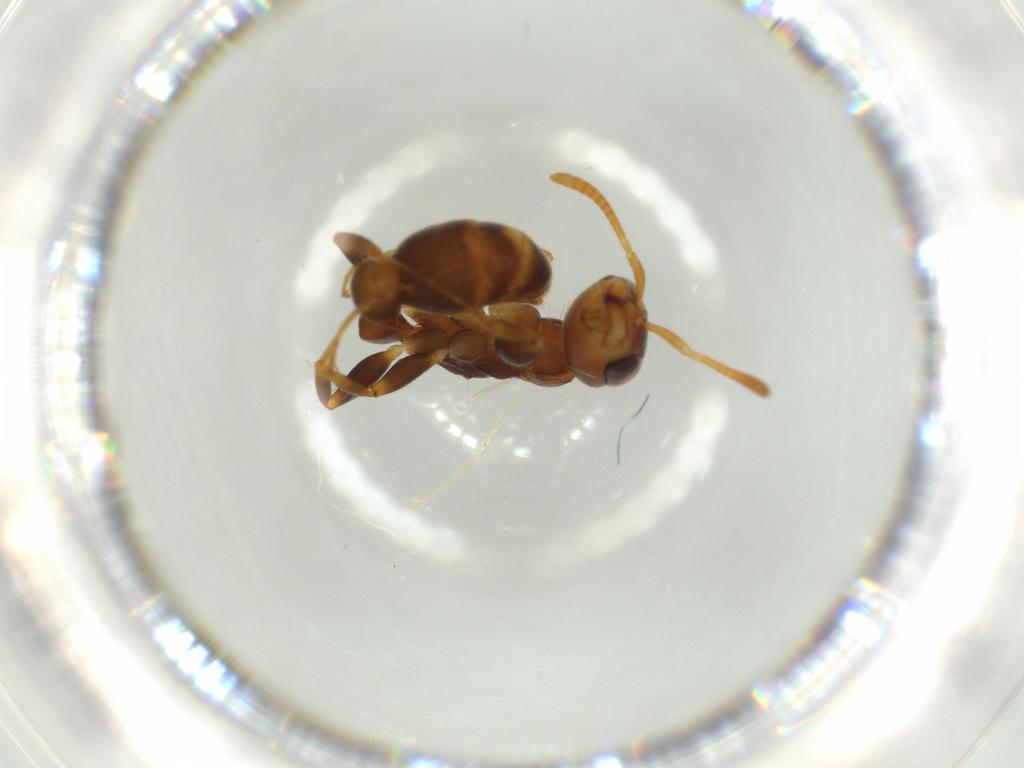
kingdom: Animalia
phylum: Arthropoda
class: Insecta
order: Hymenoptera
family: Formicidae
